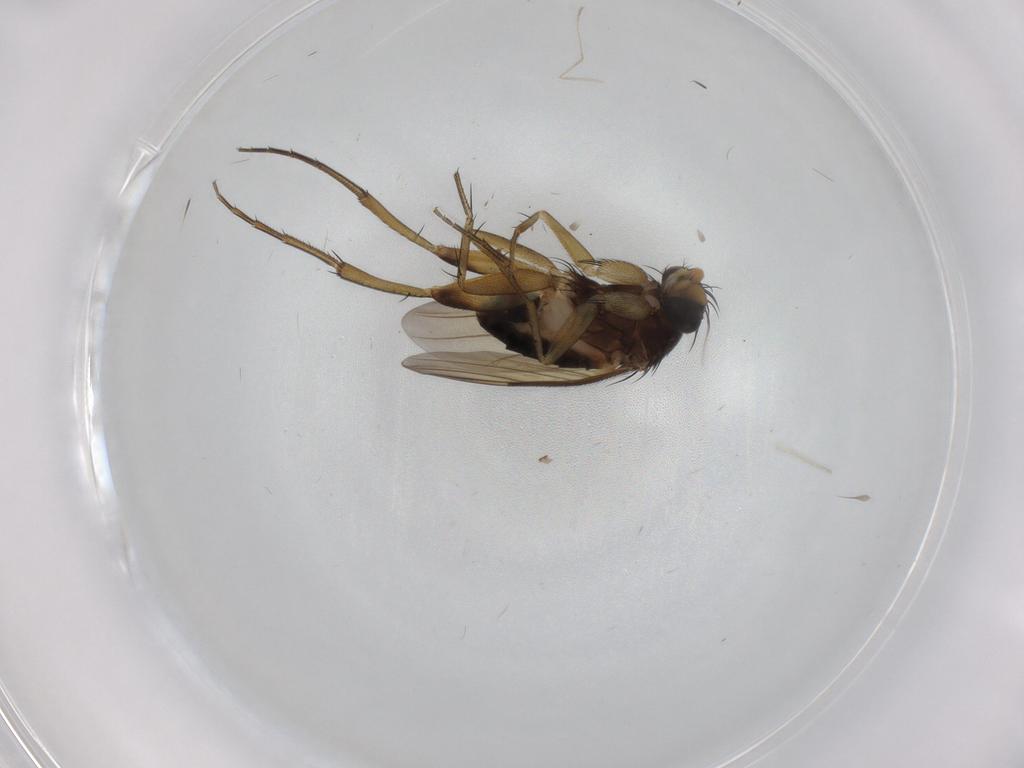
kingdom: Animalia
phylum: Arthropoda
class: Insecta
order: Diptera
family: Phoridae
